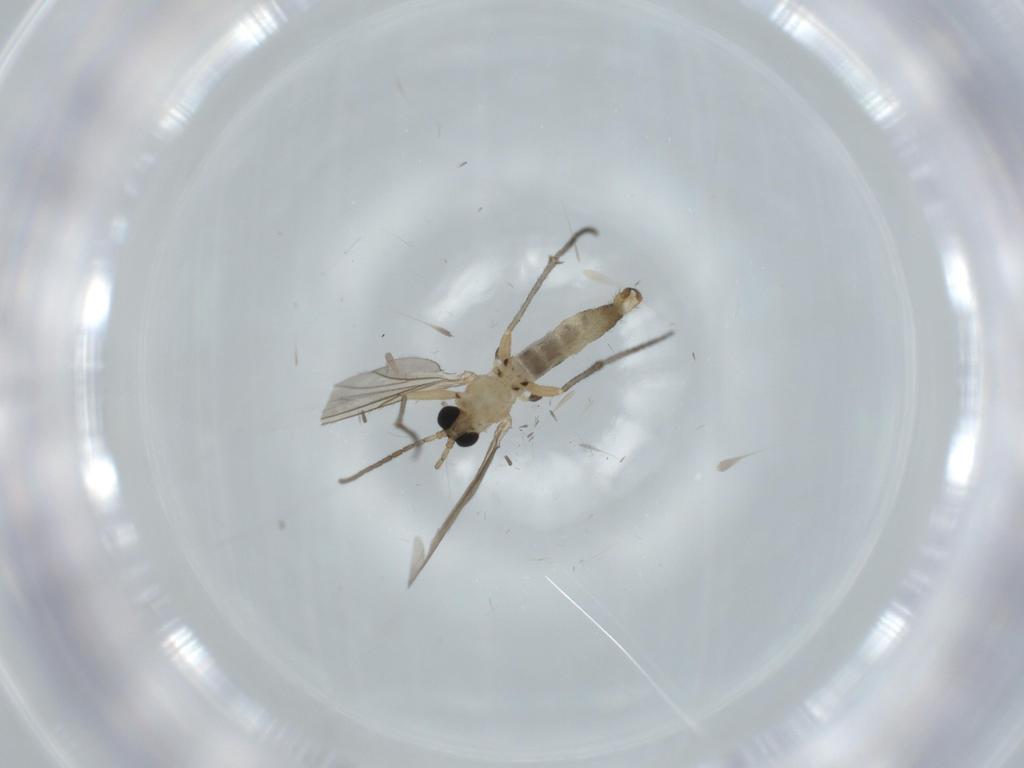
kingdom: Animalia
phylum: Arthropoda
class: Insecta
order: Diptera
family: Sciaridae
